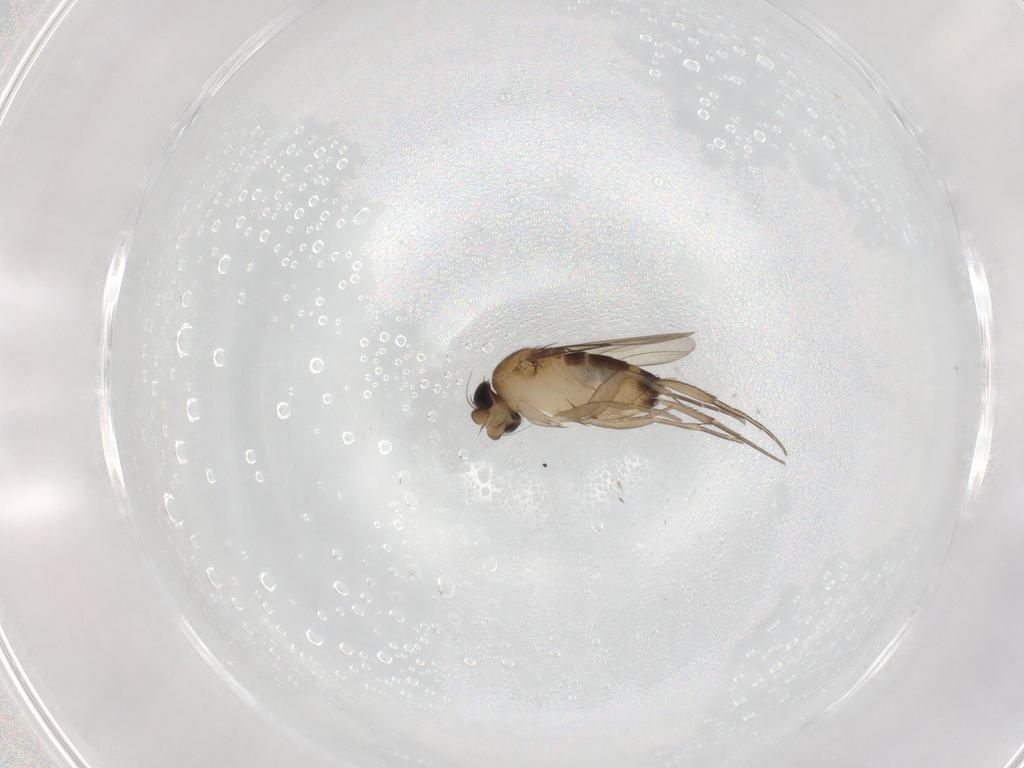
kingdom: Animalia
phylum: Arthropoda
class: Insecta
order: Diptera
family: Phoridae
